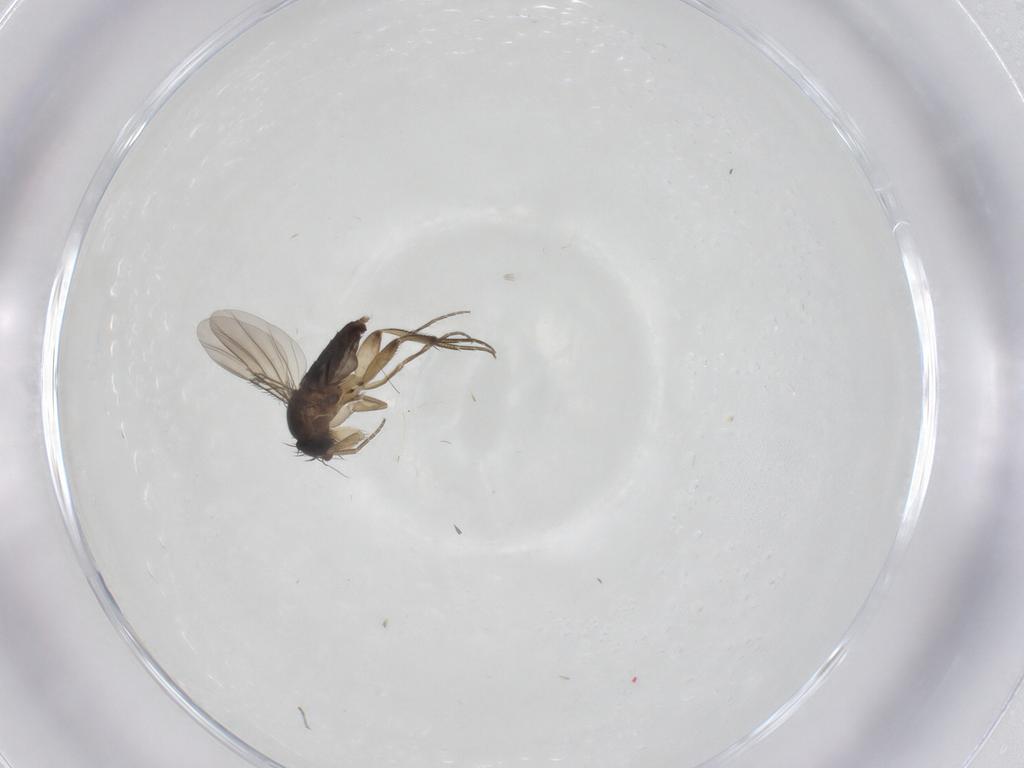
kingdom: Animalia
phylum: Arthropoda
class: Insecta
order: Diptera
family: Phoridae
